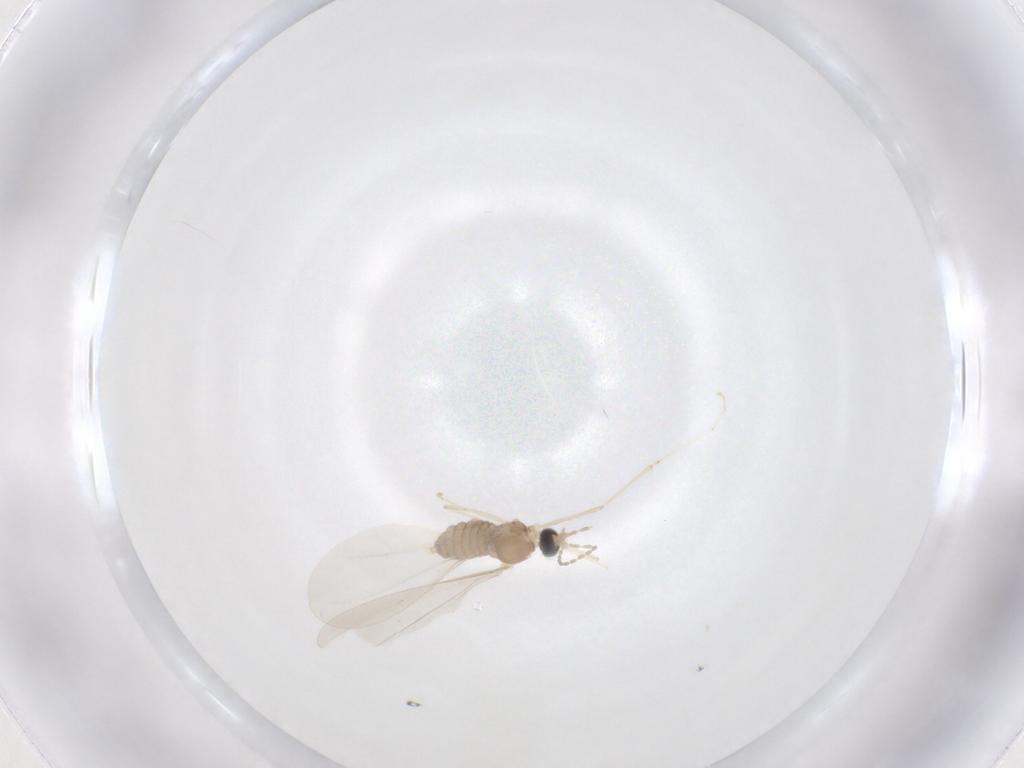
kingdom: Animalia
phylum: Arthropoda
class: Insecta
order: Diptera
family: Cecidomyiidae
